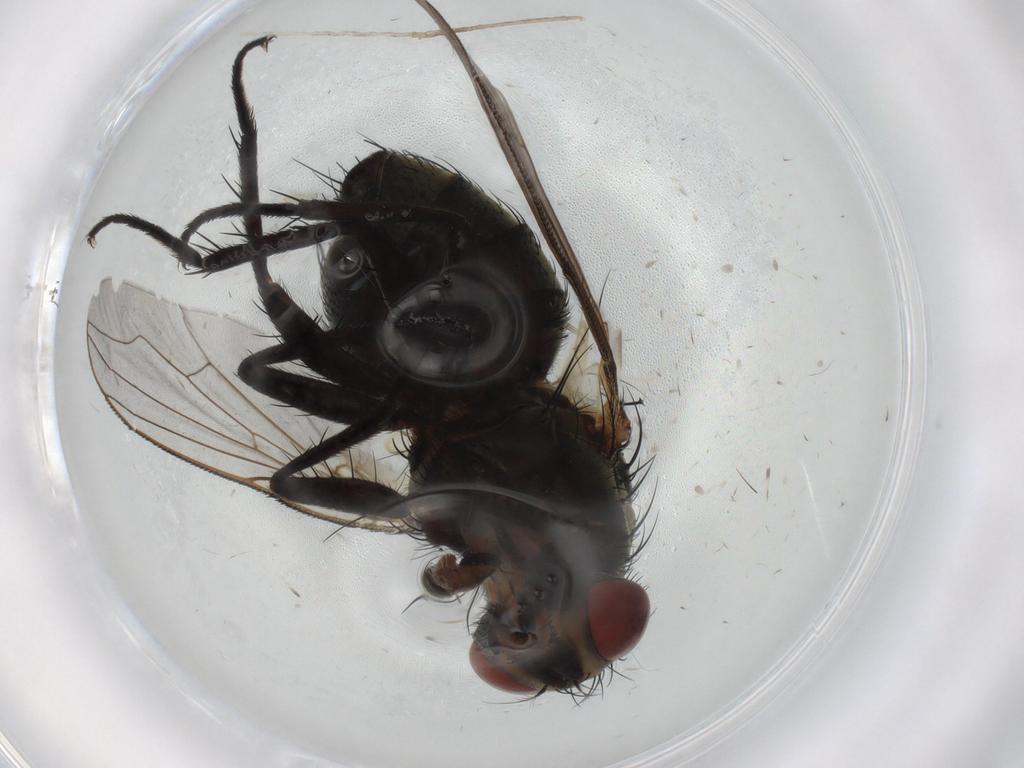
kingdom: Animalia
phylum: Arthropoda
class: Insecta
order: Diptera
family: Sarcophagidae
